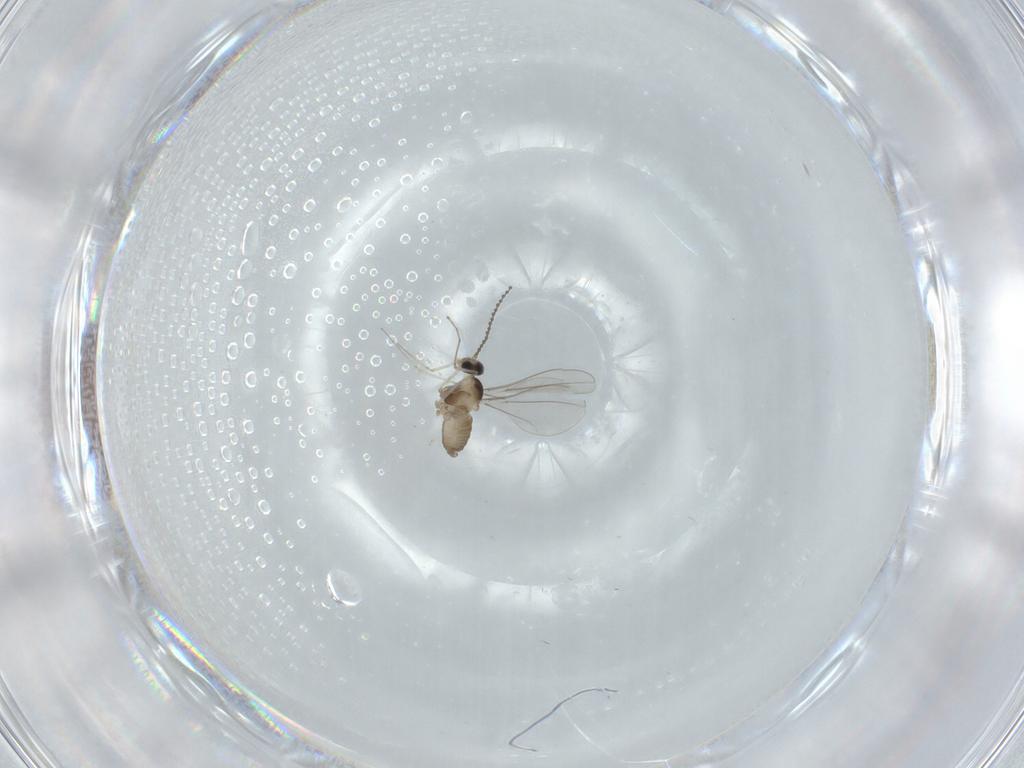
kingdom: Animalia
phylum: Arthropoda
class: Insecta
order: Diptera
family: Cecidomyiidae
